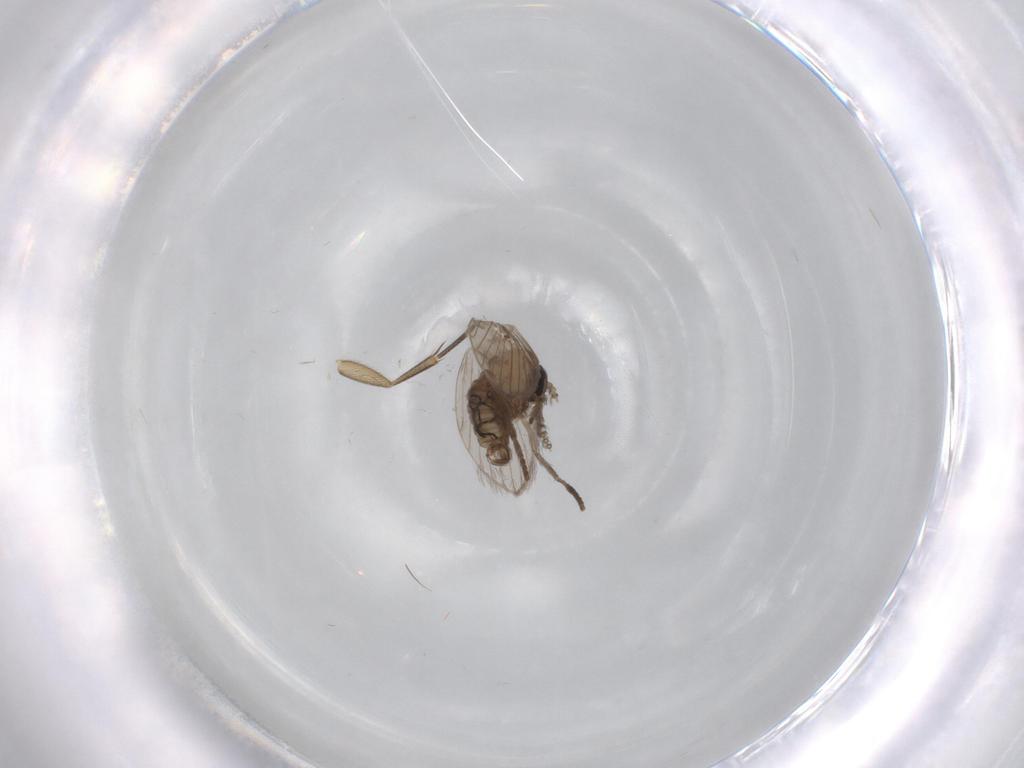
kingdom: Animalia
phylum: Arthropoda
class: Insecta
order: Diptera
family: Psychodidae
